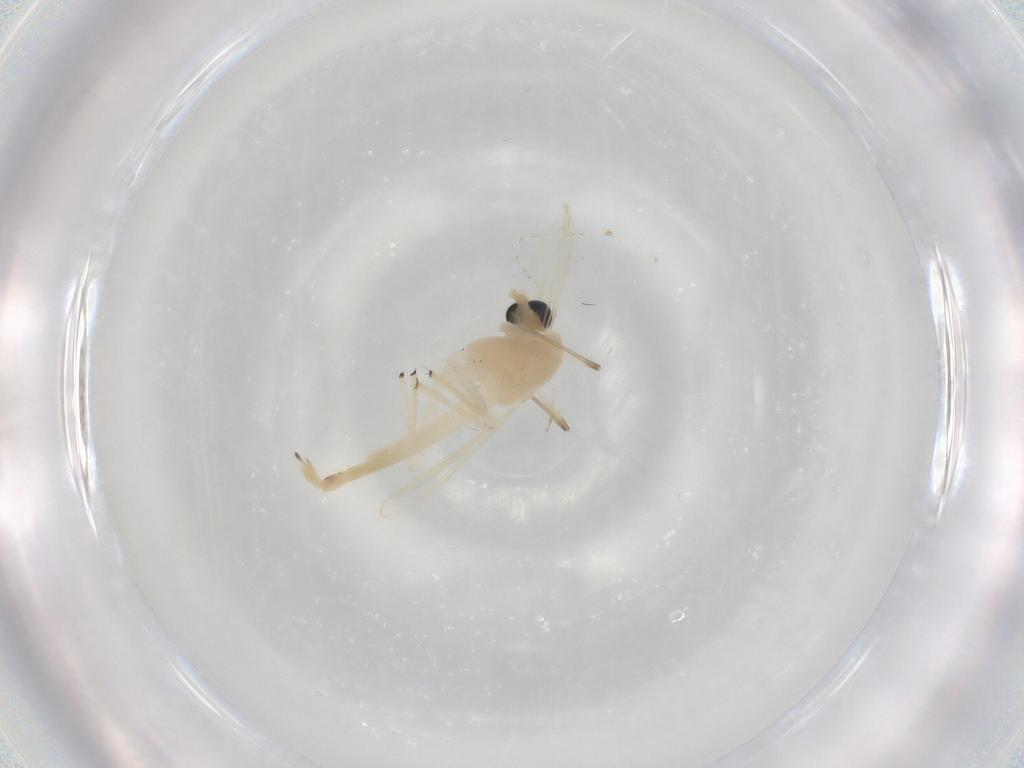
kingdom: Animalia
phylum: Arthropoda
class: Insecta
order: Diptera
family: Chironomidae
